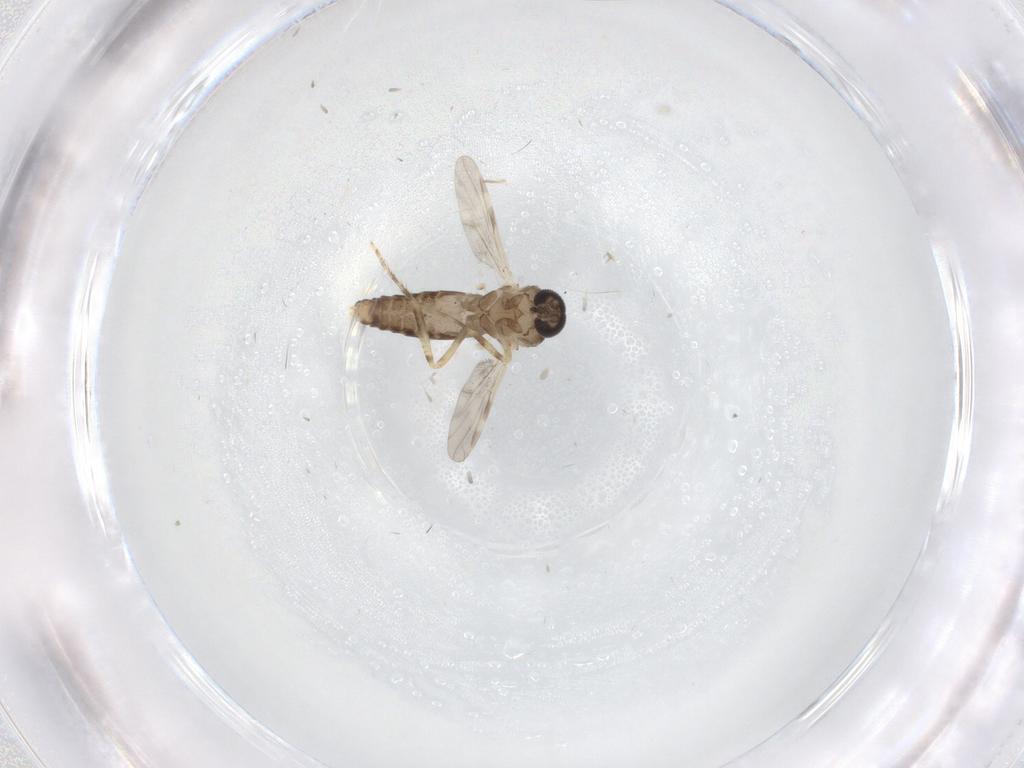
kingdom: Animalia
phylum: Arthropoda
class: Insecta
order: Diptera
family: Ceratopogonidae
